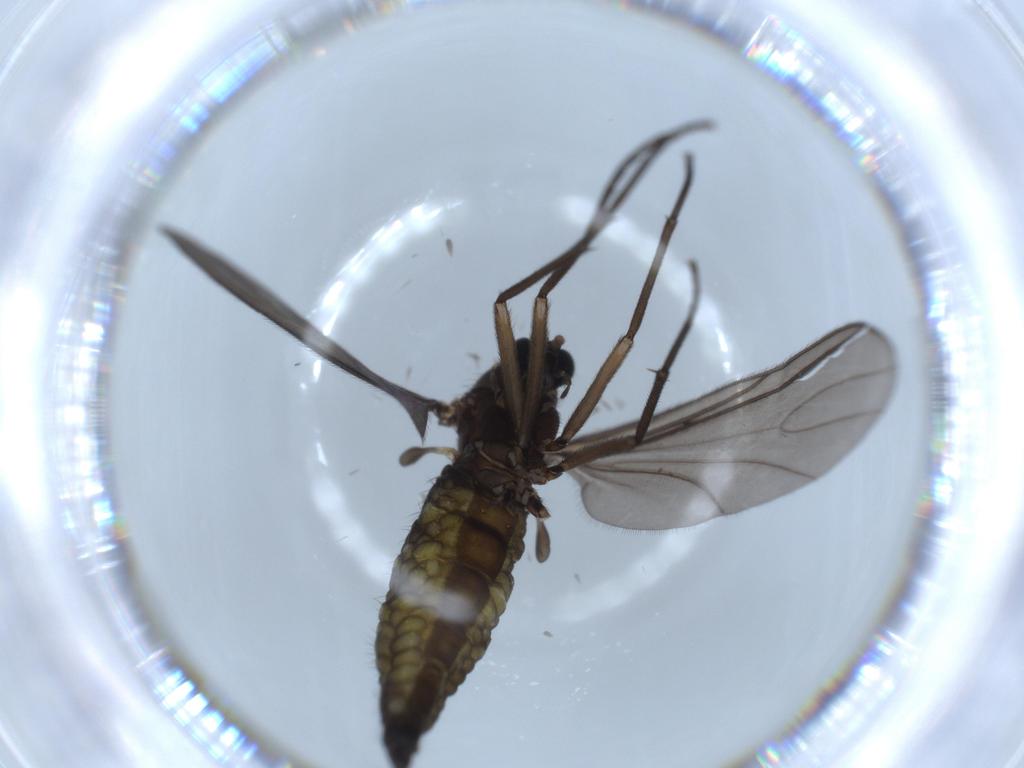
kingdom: Animalia
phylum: Arthropoda
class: Insecta
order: Diptera
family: Sciaridae
